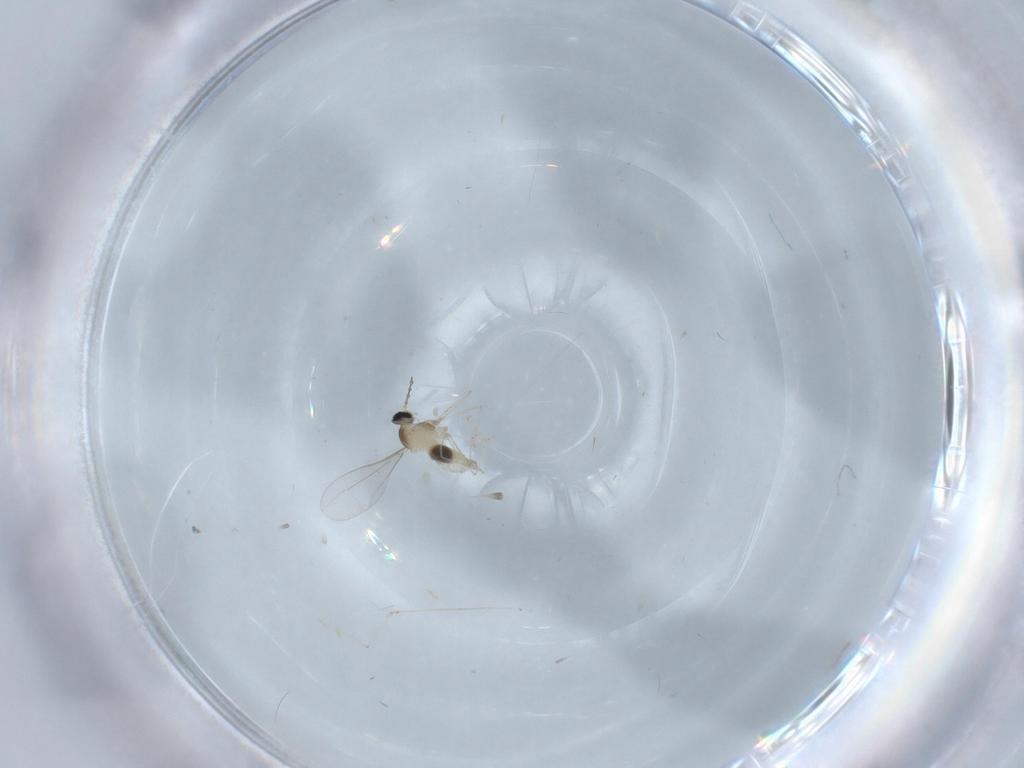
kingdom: Animalia
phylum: Arthropoda
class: Insecta
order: Diptera
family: Cecidomyiidae
